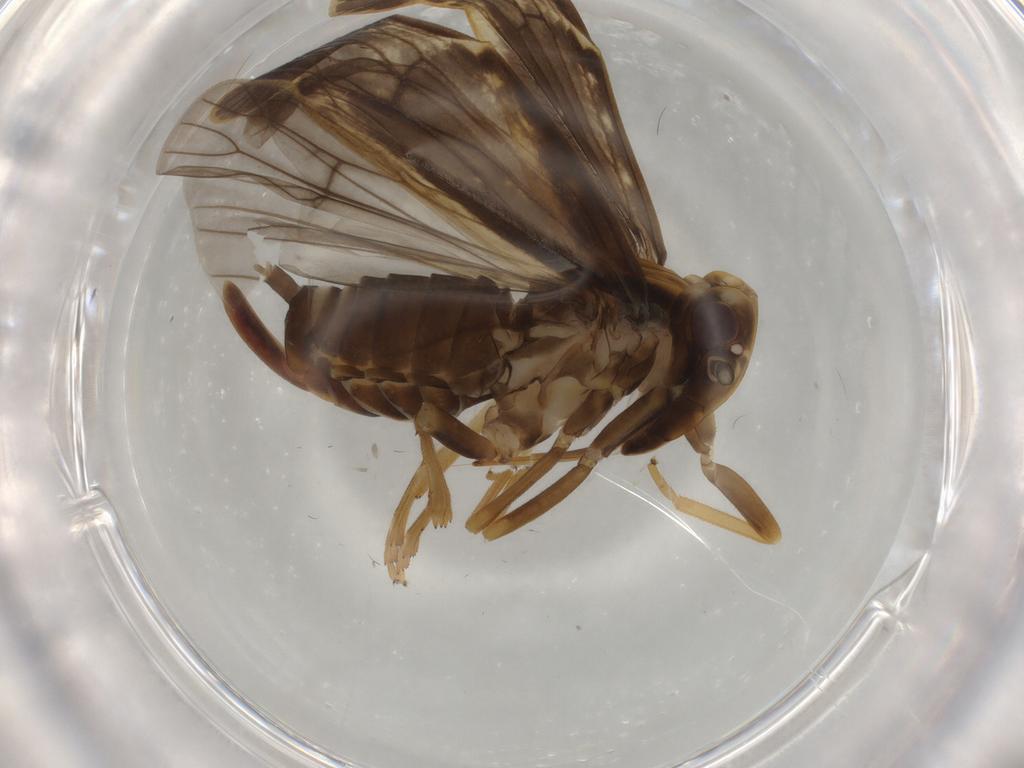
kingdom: Animalia
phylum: Arthropoda
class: Insecta
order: Hemiptera
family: Cixiidae
